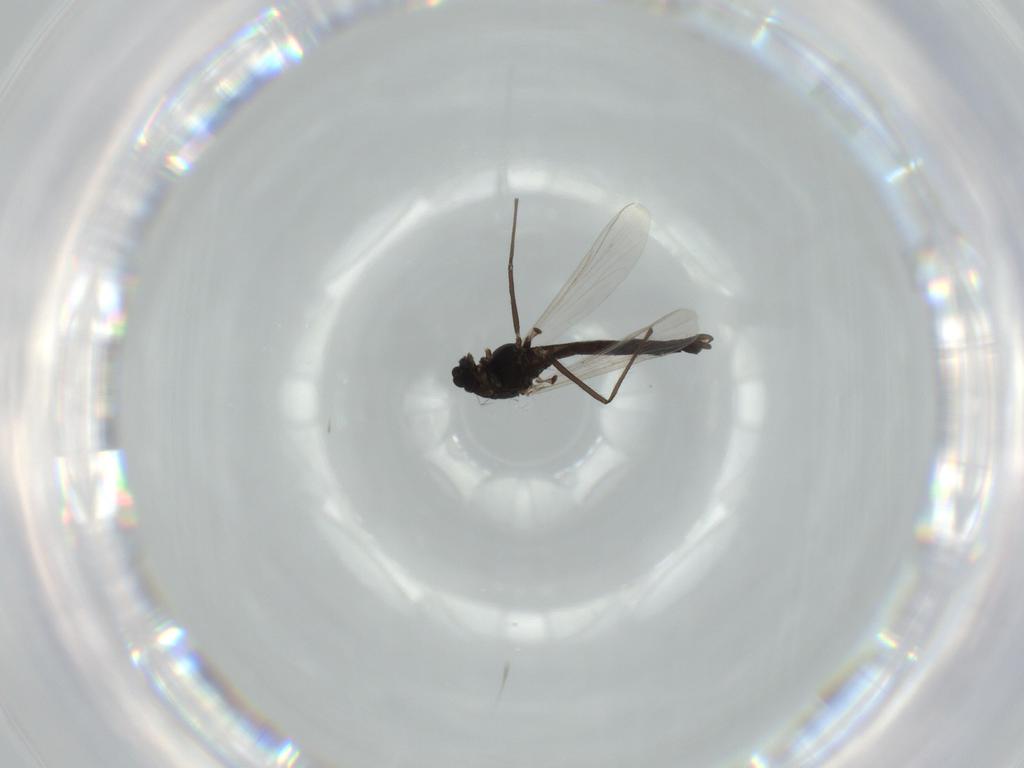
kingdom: Animalia
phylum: Arthropoda
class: Insecta
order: Diptera
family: Chironomidae
